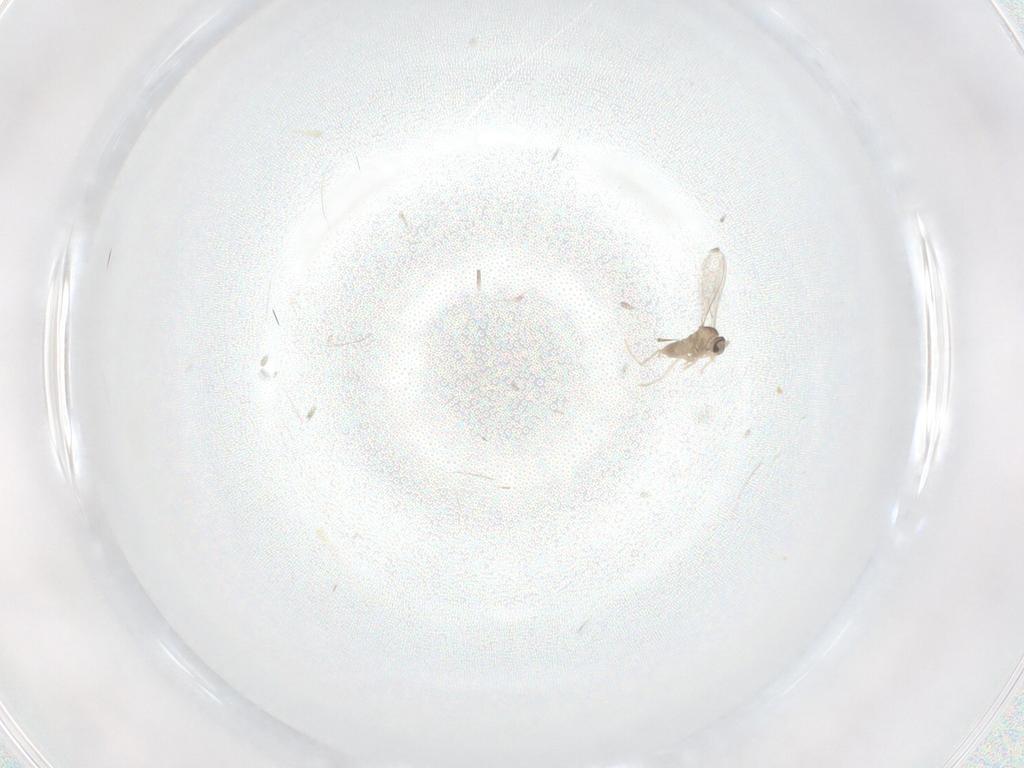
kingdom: Animalia
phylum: Arthropoda
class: Insecta
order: Diptera
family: Cecidomyiidae
